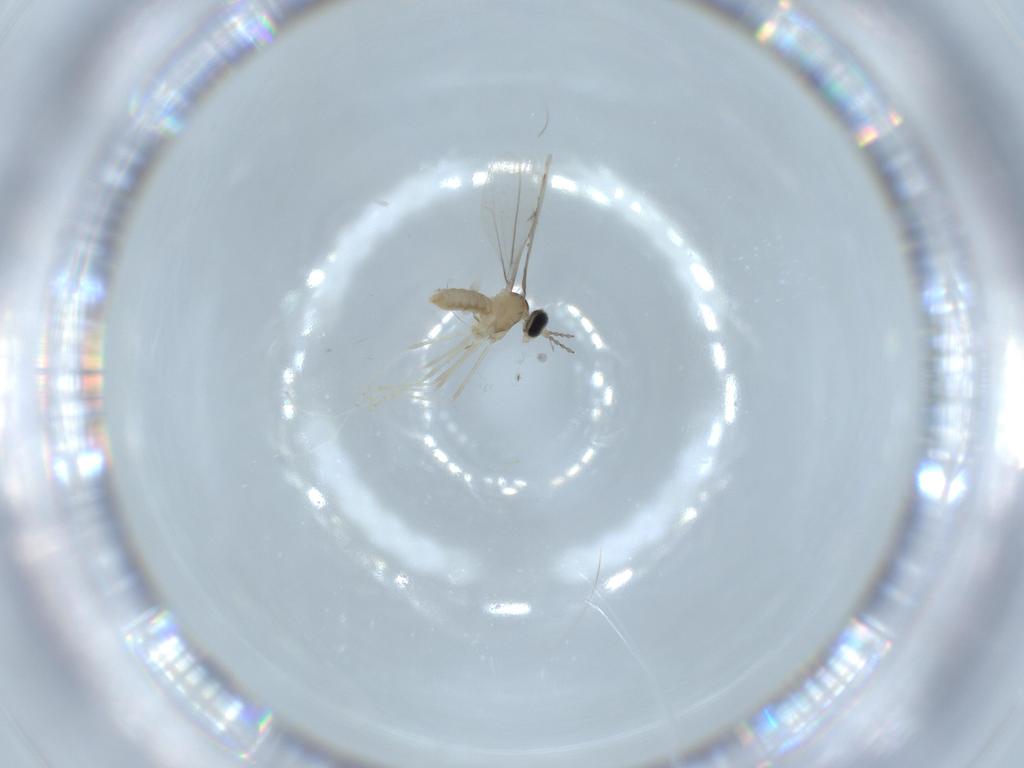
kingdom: Animalia
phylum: Arthropoda
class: Insecta
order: Diptera
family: Cecidomyiidae
